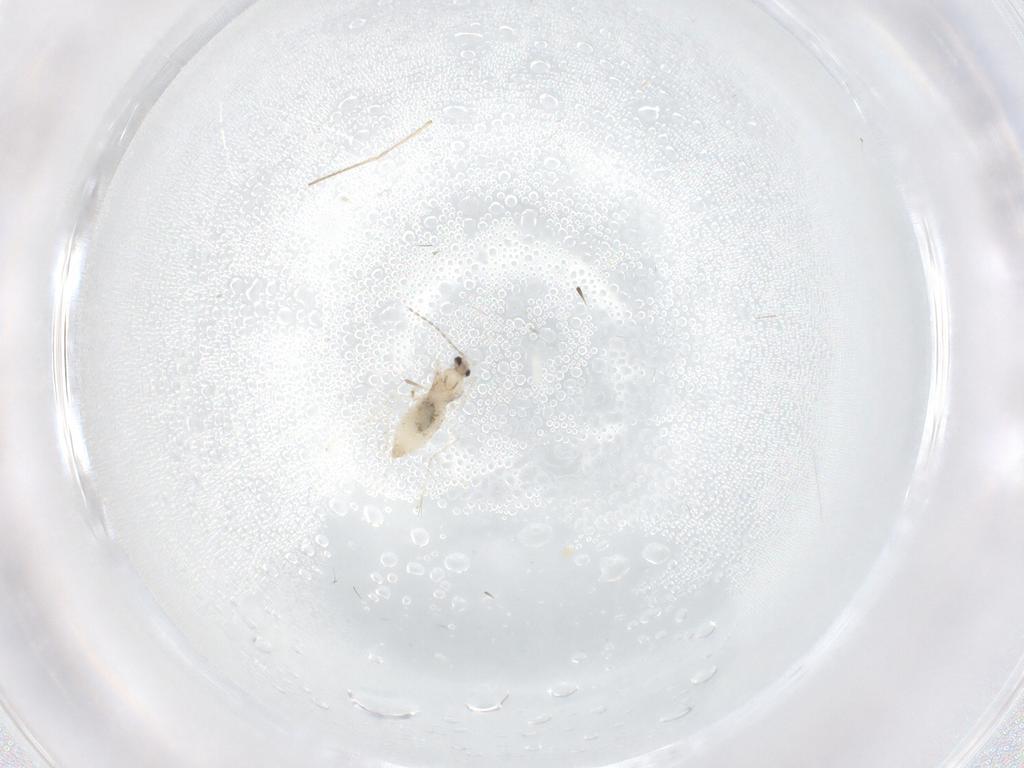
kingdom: Animalia
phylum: Arthropoda
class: Insecta
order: Diptera
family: Cecidomyiidae
